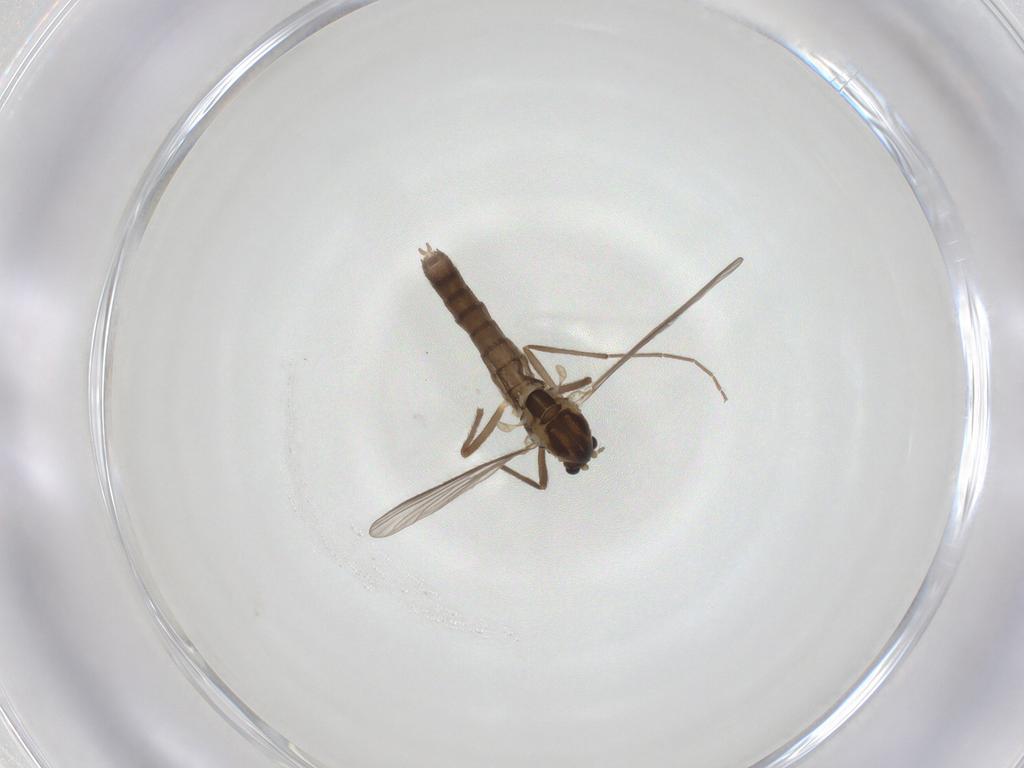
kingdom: Animalia
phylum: Arthropoda
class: Insecta
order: Diptera
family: Chironomidae
